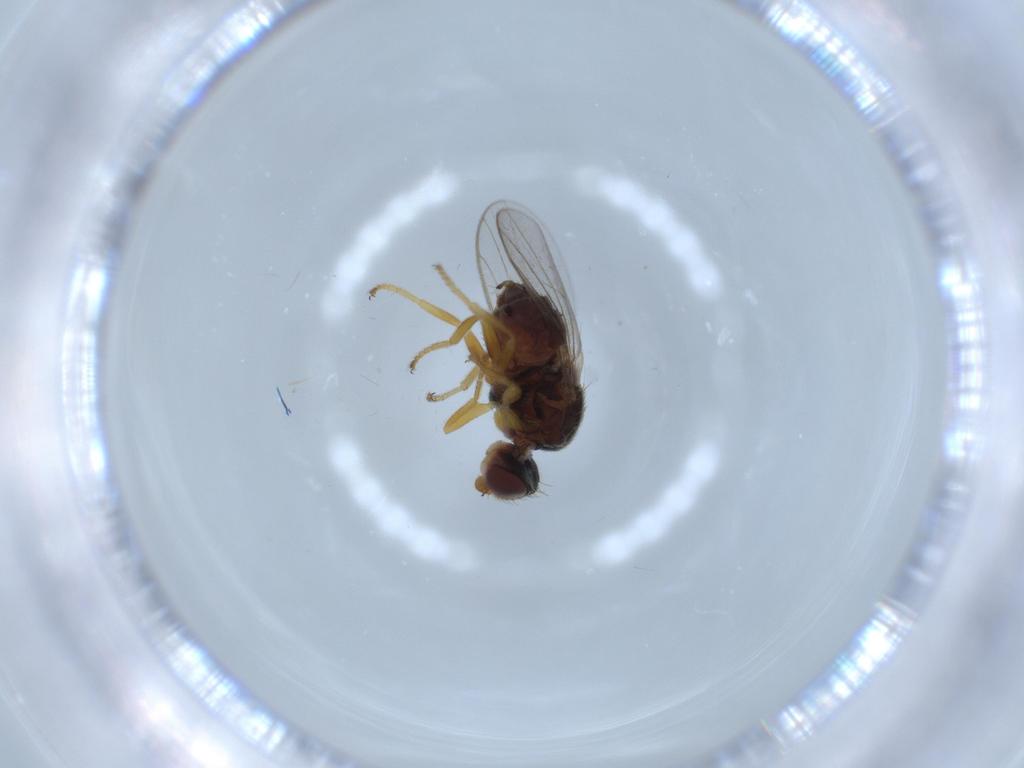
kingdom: Animalia
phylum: Arthropoda
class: Insecta
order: Diptera
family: Chloropidae
